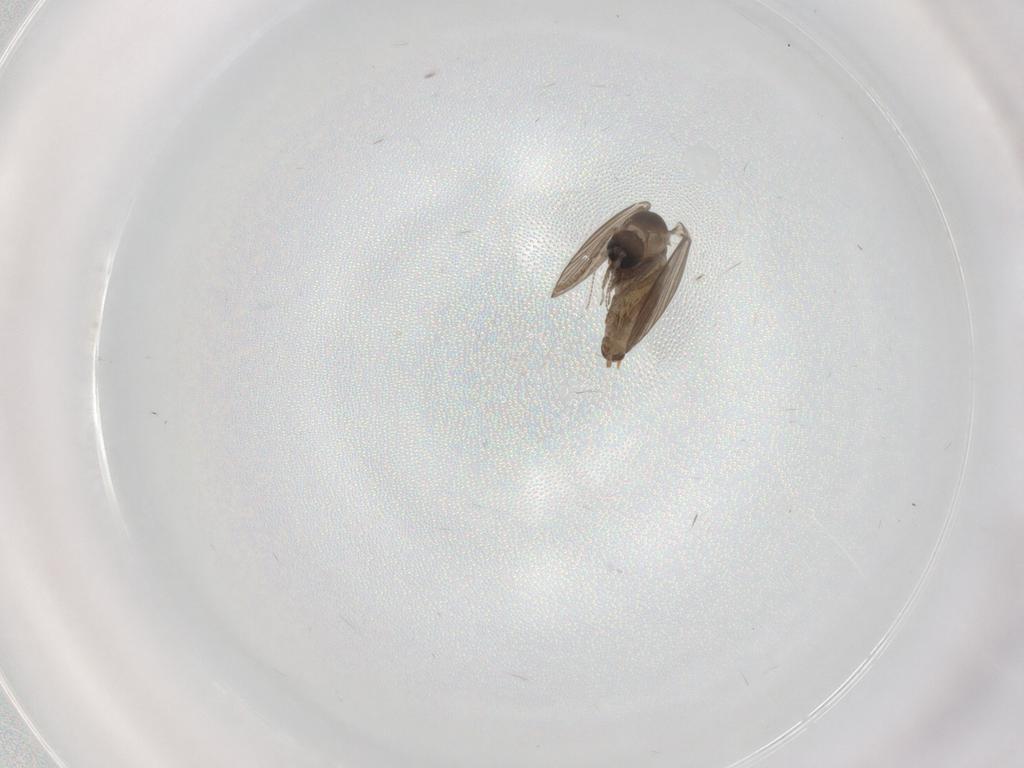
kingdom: Animalia
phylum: Arthropoda
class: Insecta
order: Diptera
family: Psychodidae
